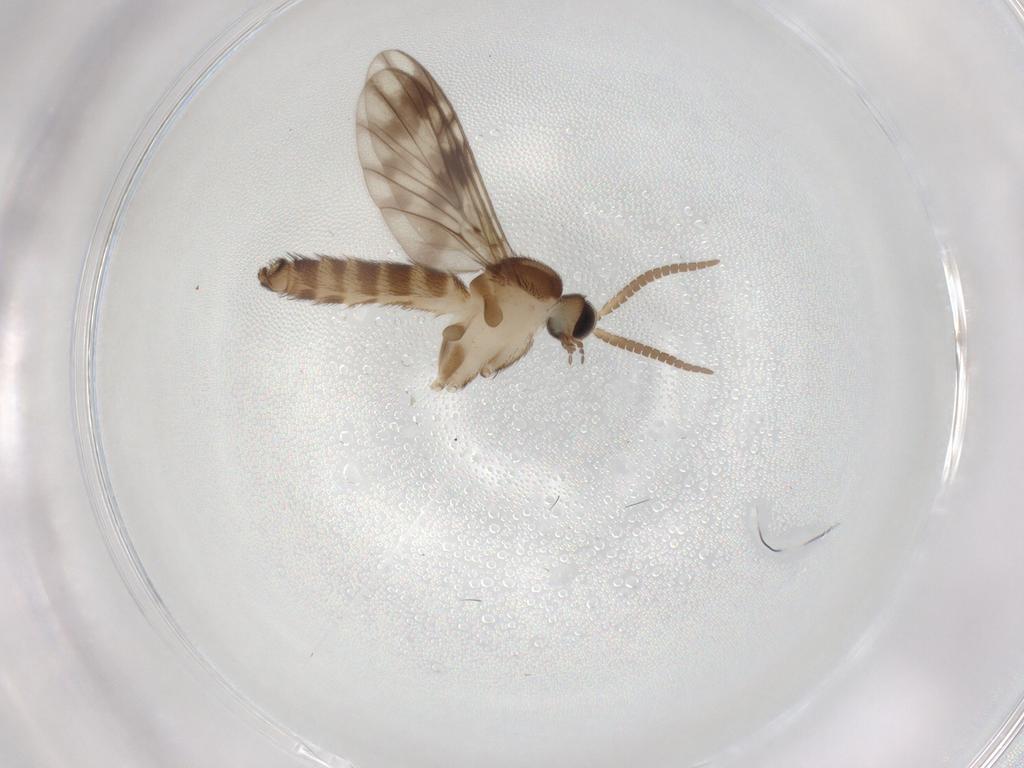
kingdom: Animalia
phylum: Arthropoda
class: Insecta
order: Diptera
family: Keroplatidae
